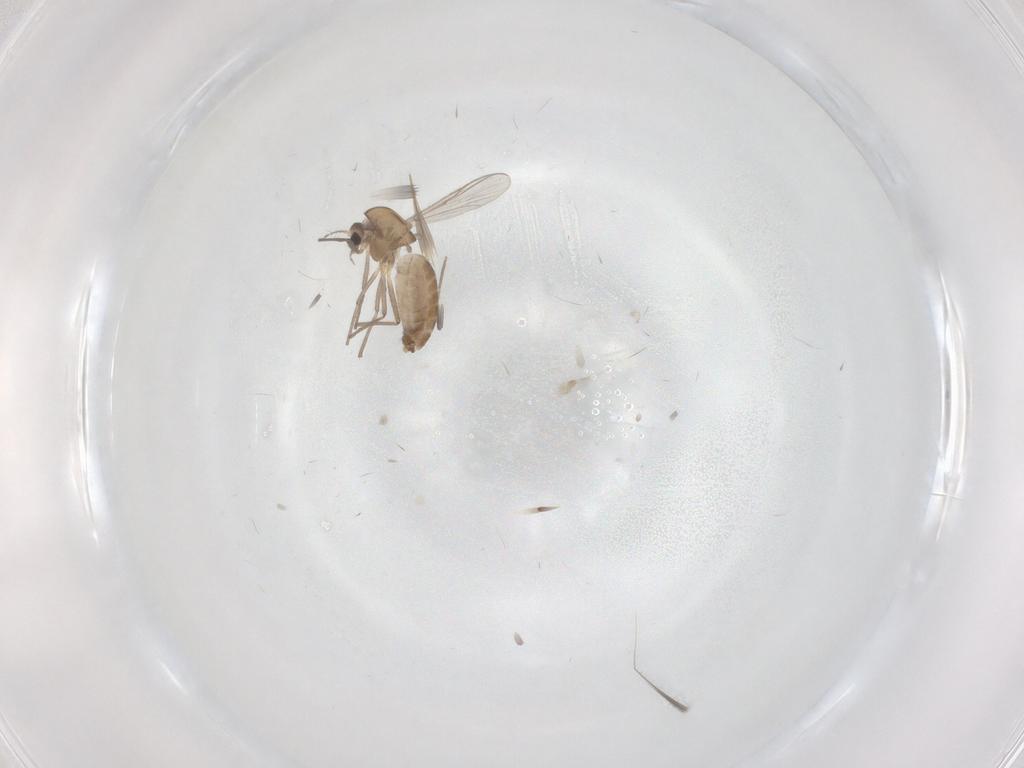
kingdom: Animalia
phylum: Arthropoda
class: Insecta
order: Diptera
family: Chironomidae
